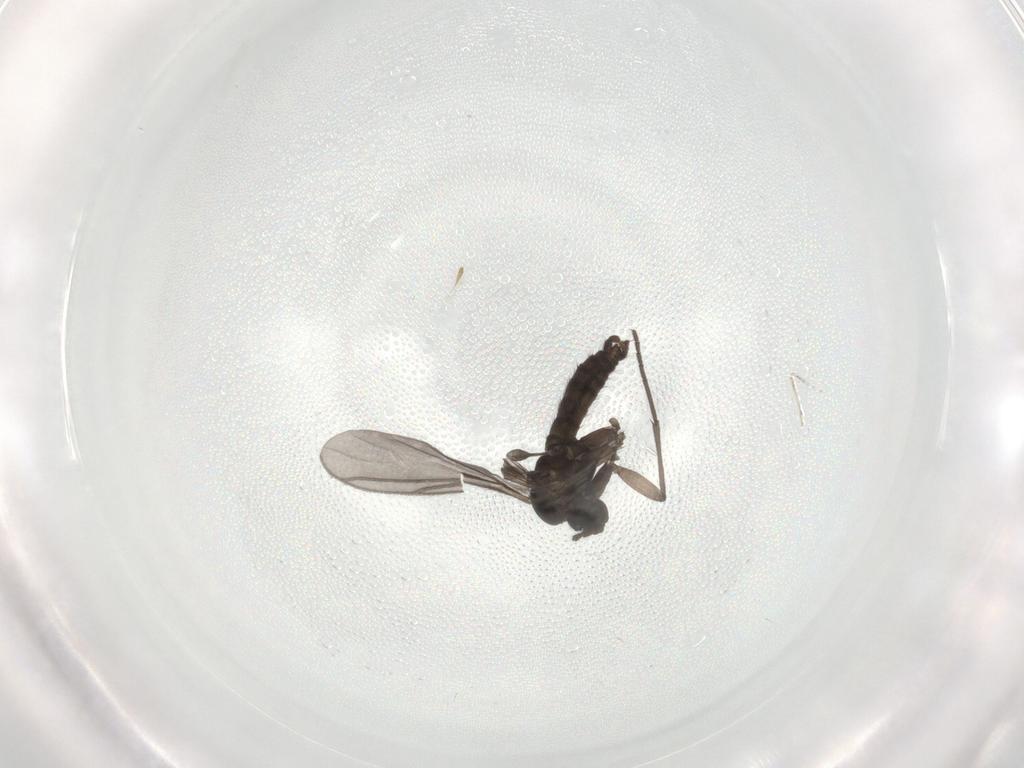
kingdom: Animalia
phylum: Arthropoda
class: Insecta
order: Diptera
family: Sciaridae
